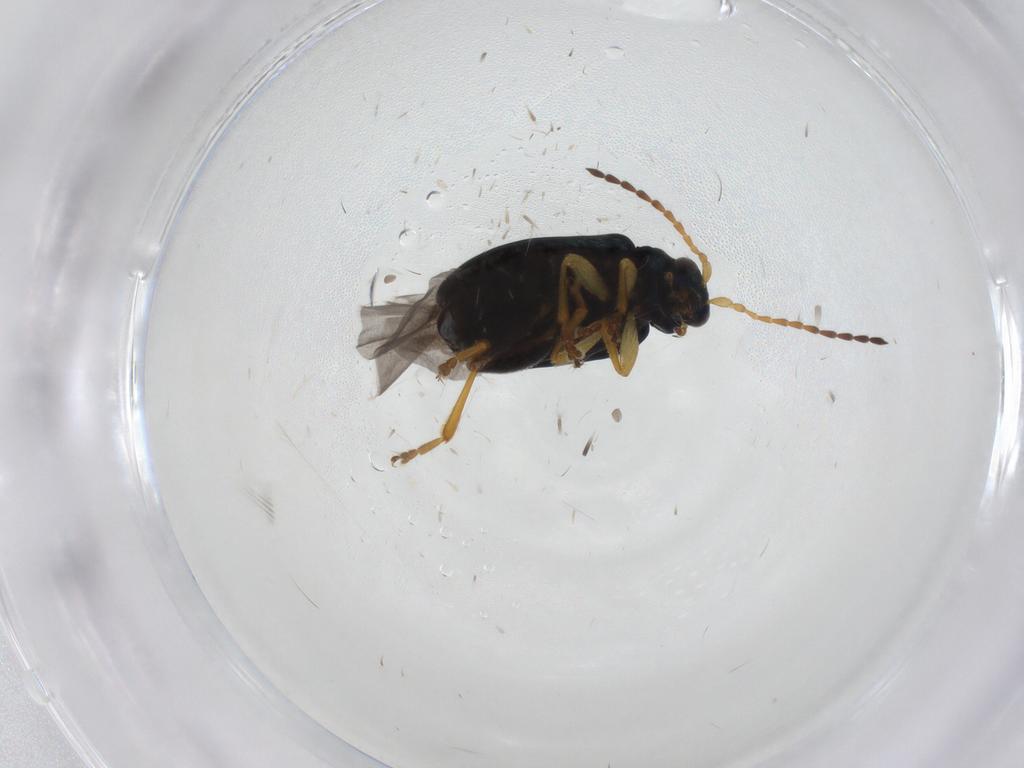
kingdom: Animalia
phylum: Arthropoda
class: Insecta
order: Coleoptera
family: Chrysomelidae
